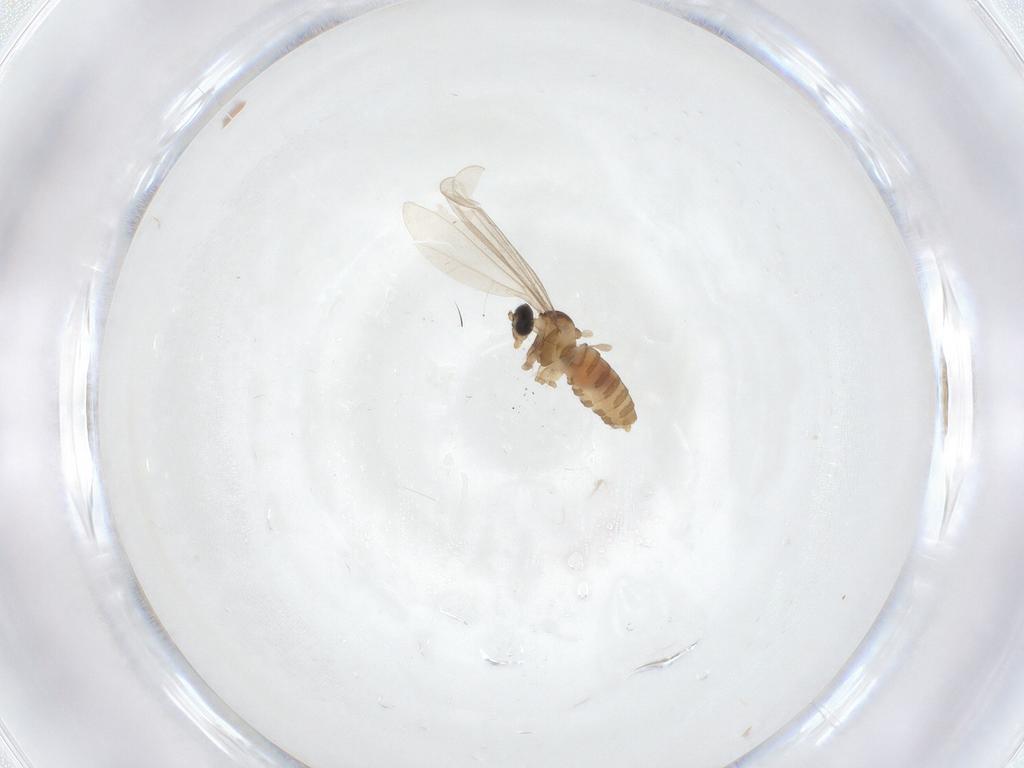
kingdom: Animalia
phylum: Arthropoda
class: Insecta
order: Diptera
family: Cecidomyiidae
